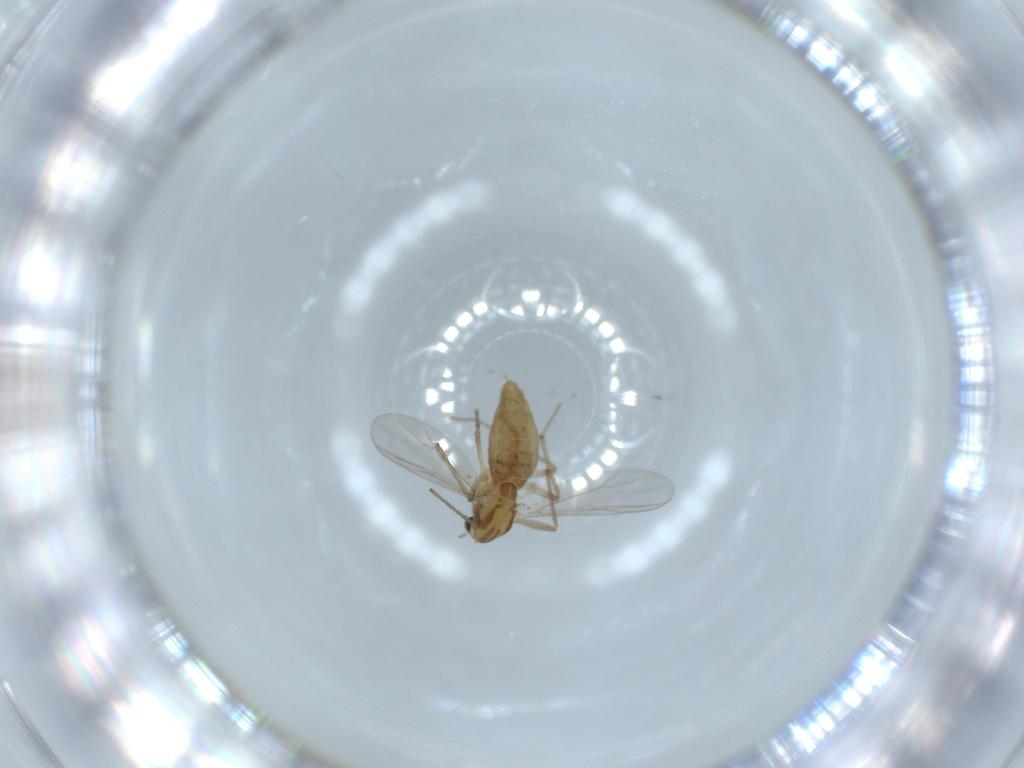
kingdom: Animalia
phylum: Arthropoda
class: Insecta
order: Diptera
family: Chironomidae
